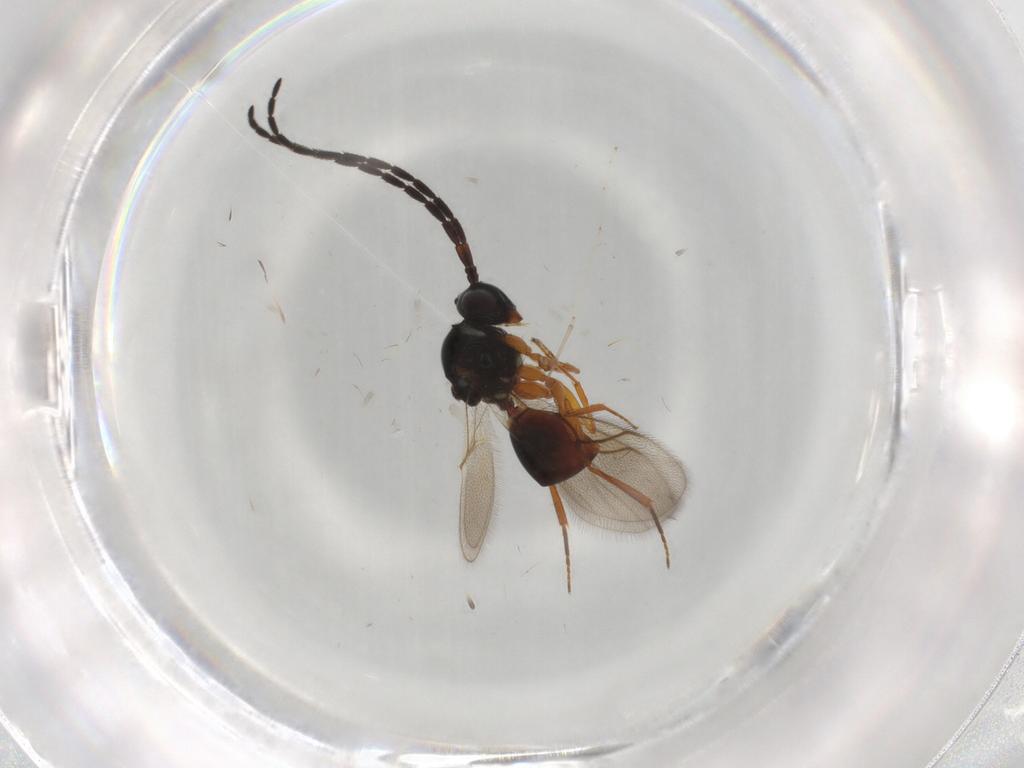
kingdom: Animalia
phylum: Arthropoda
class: Insecta
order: Hymenoptera
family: Figitidae
